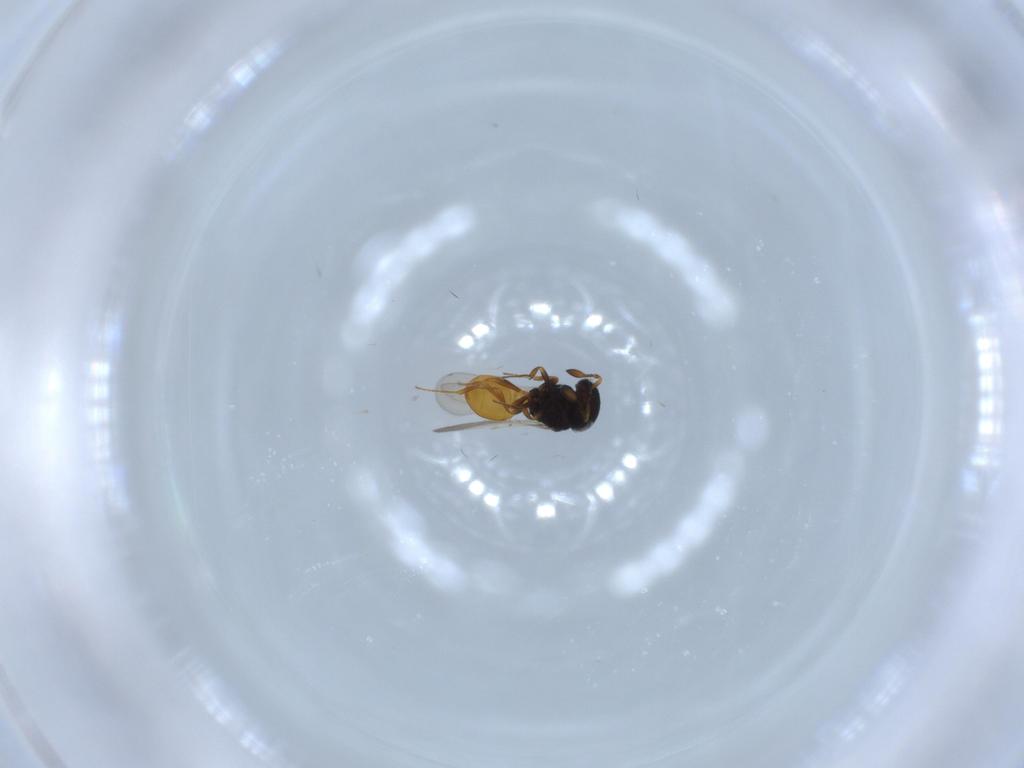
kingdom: Animalia
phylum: Arthropoda
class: Insecta
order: Hymenoptera
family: Scelionidae
